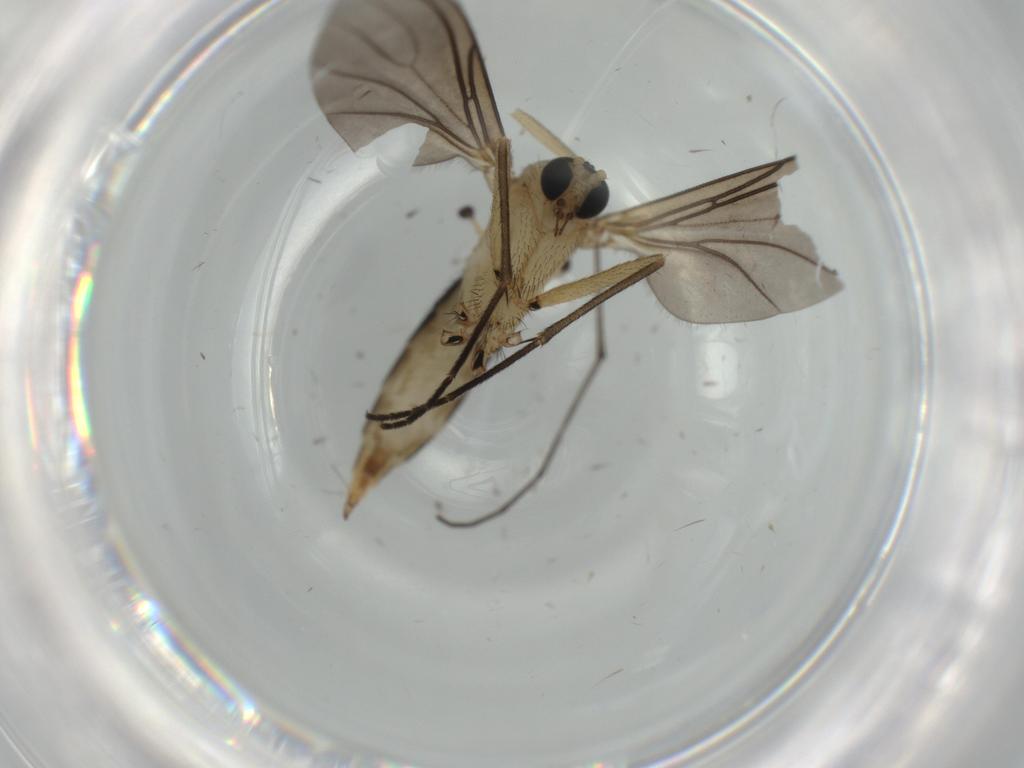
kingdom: Animalia
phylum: Arthropoda
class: Insecta
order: Diptera
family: Sciaridae
